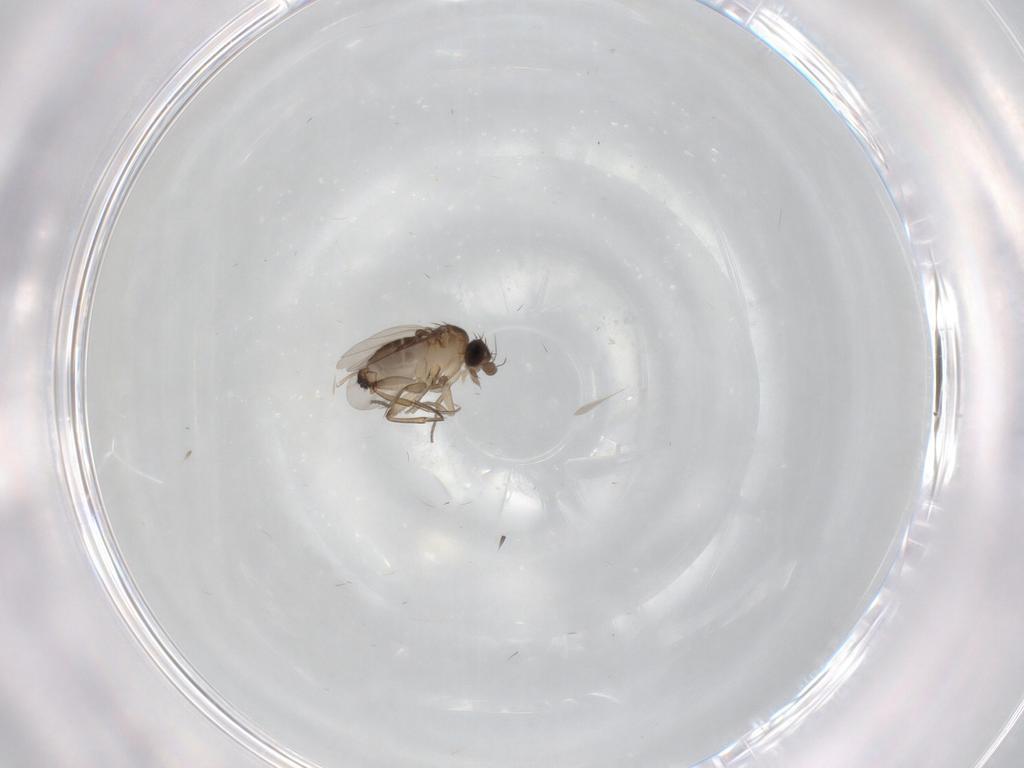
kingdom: Animalia
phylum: Arthropoda
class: Insecta
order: Diptera
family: Phoridae
